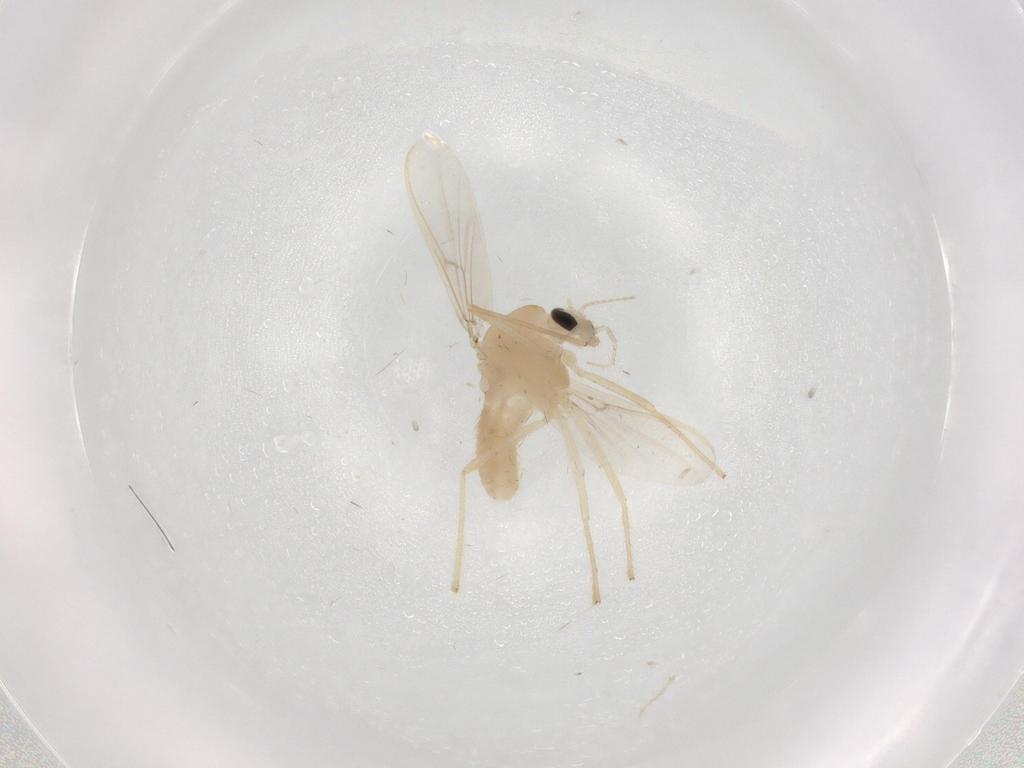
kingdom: Animalia
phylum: Arthropoda
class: Insecta
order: Diptera
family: Chironomidae
